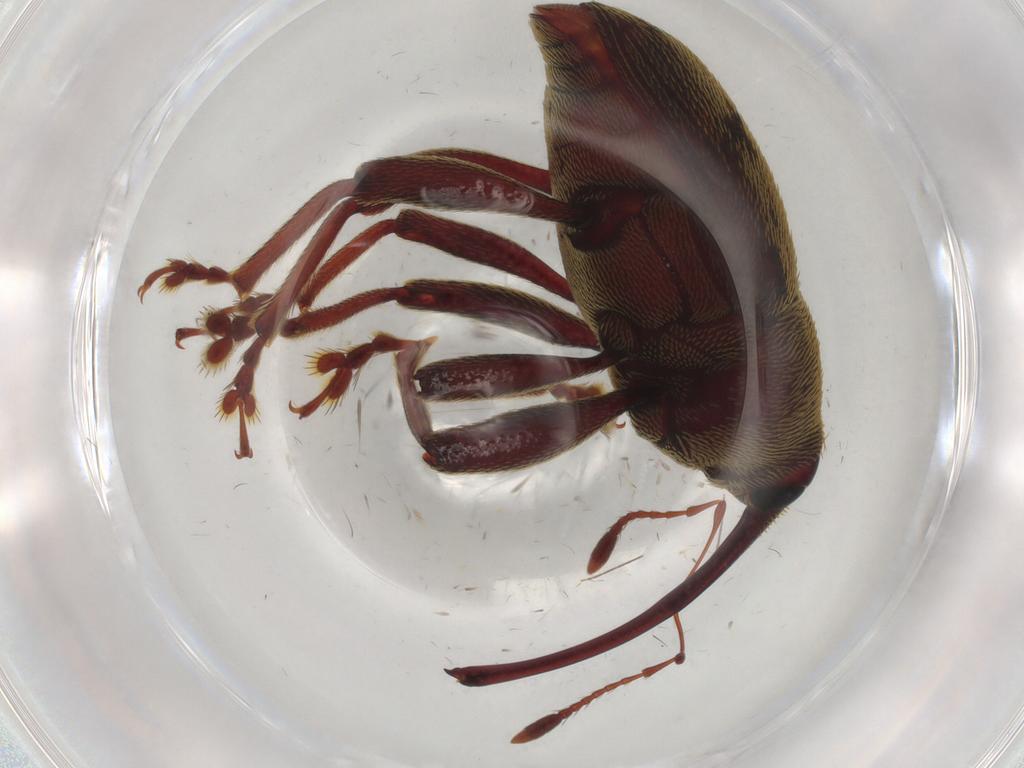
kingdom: Animalia
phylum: Arthropoda
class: Insecta
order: Coleoptera
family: Curculionidae
